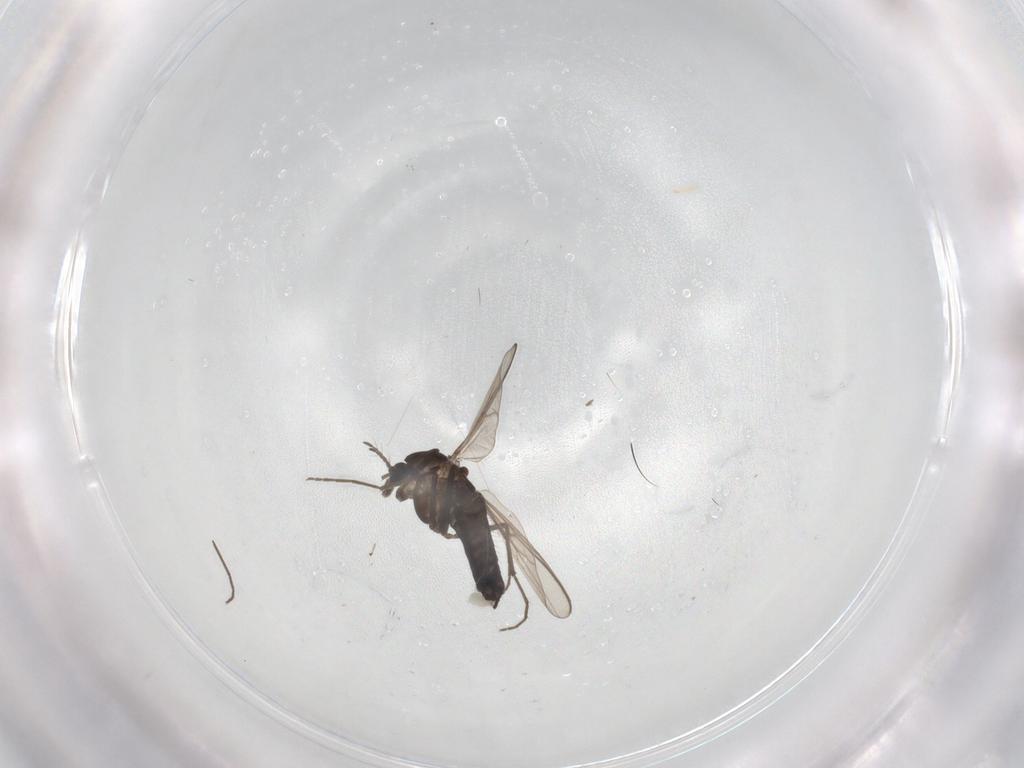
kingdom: Animalia
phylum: Arthropoda
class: Insecta
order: Diptera
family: Chironomidae
